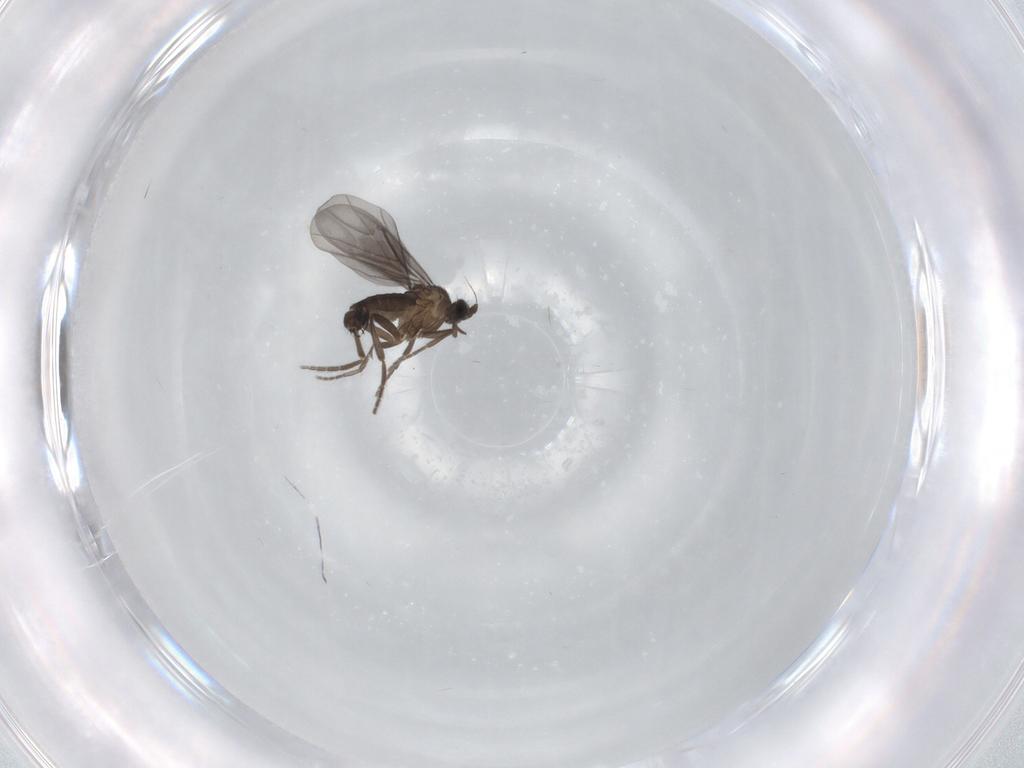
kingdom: Animalia
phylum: Arthropoda
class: Insecta
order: Diptera
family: Phoridae
